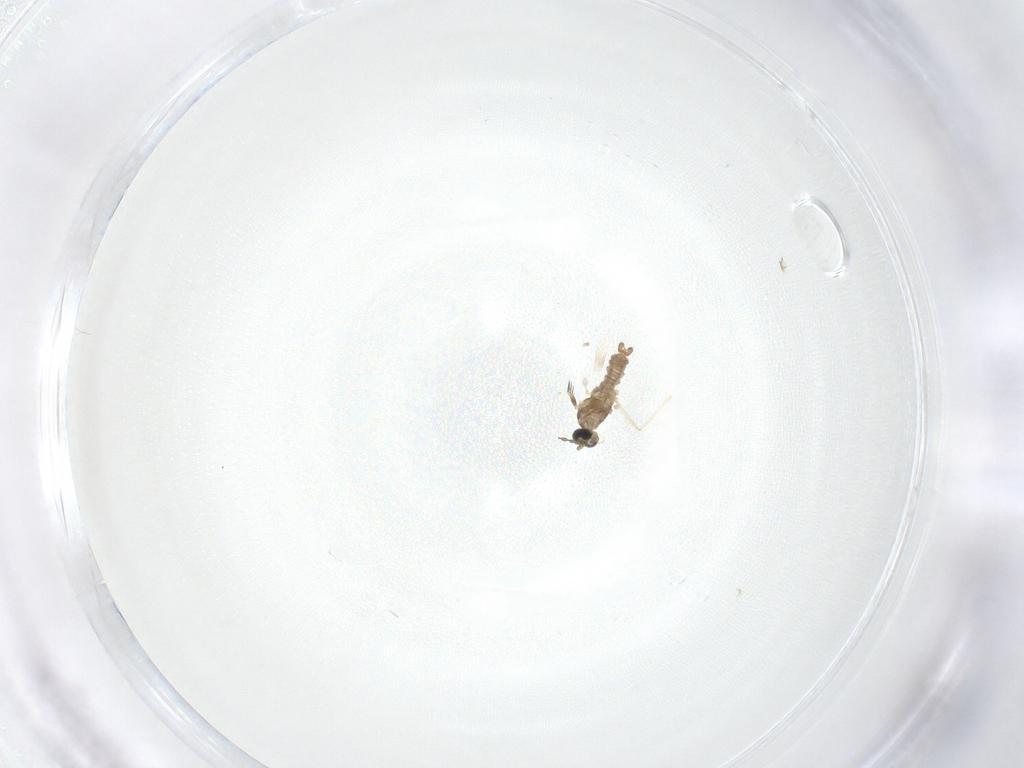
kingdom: Animalia
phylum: Arthropoda
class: Insecta
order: Diptera
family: Cecidomyiidae
